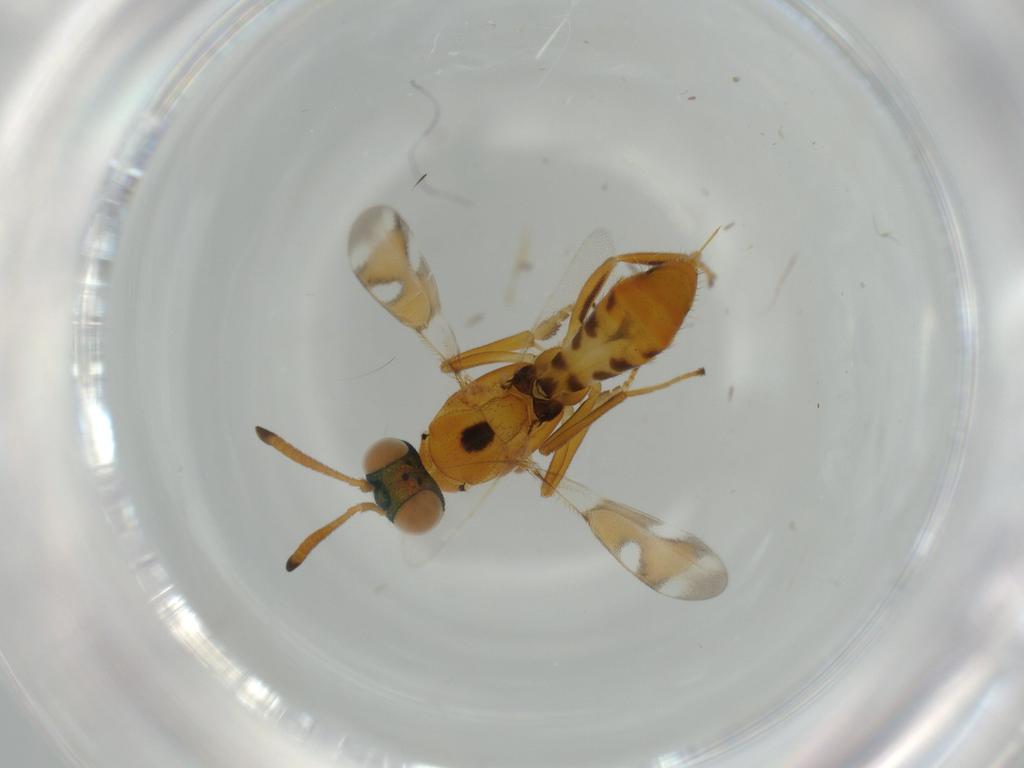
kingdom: Animalia
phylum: Arthropoda
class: Insecta
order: Hymenoptera
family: Eupelmidae
